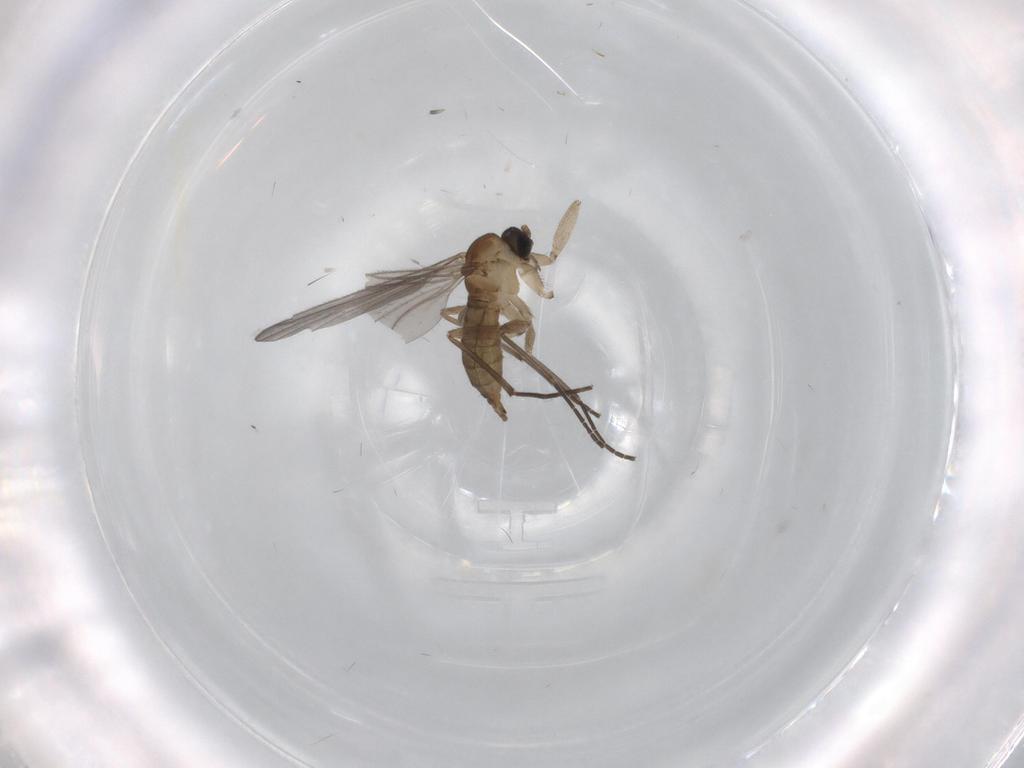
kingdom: Animalia
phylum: Arthropoda
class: Insecta
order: Diptera
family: Sciaridae
